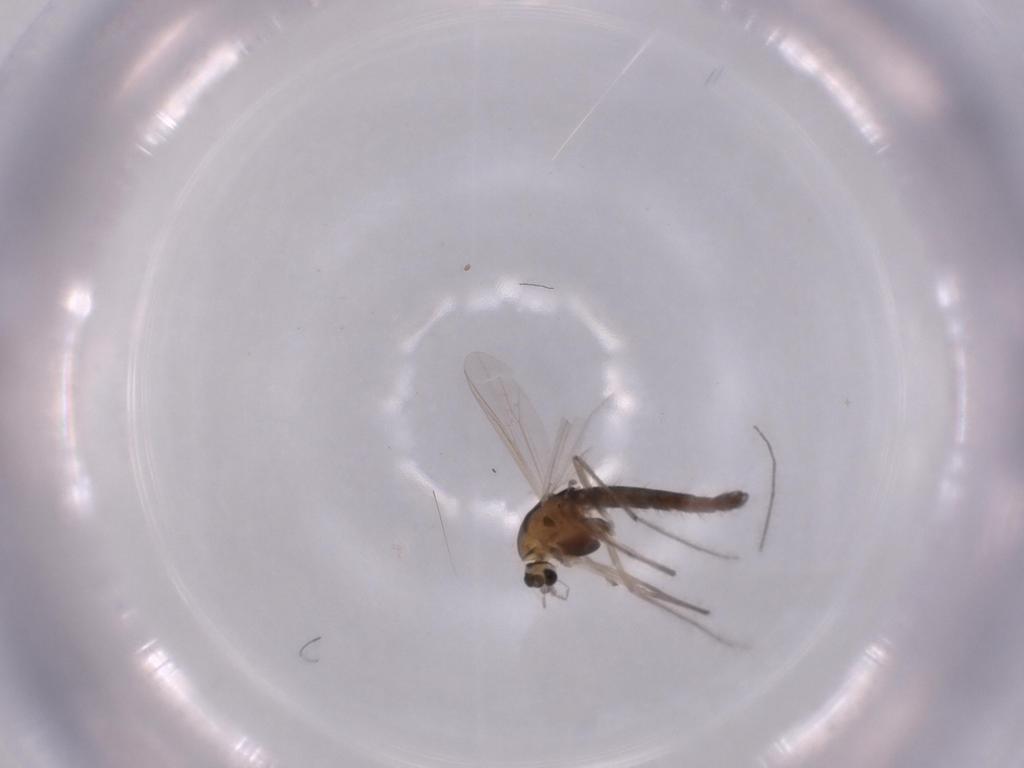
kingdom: Animalia
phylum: Arthropoda
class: Insecta
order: Diptera
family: Chironomidae
